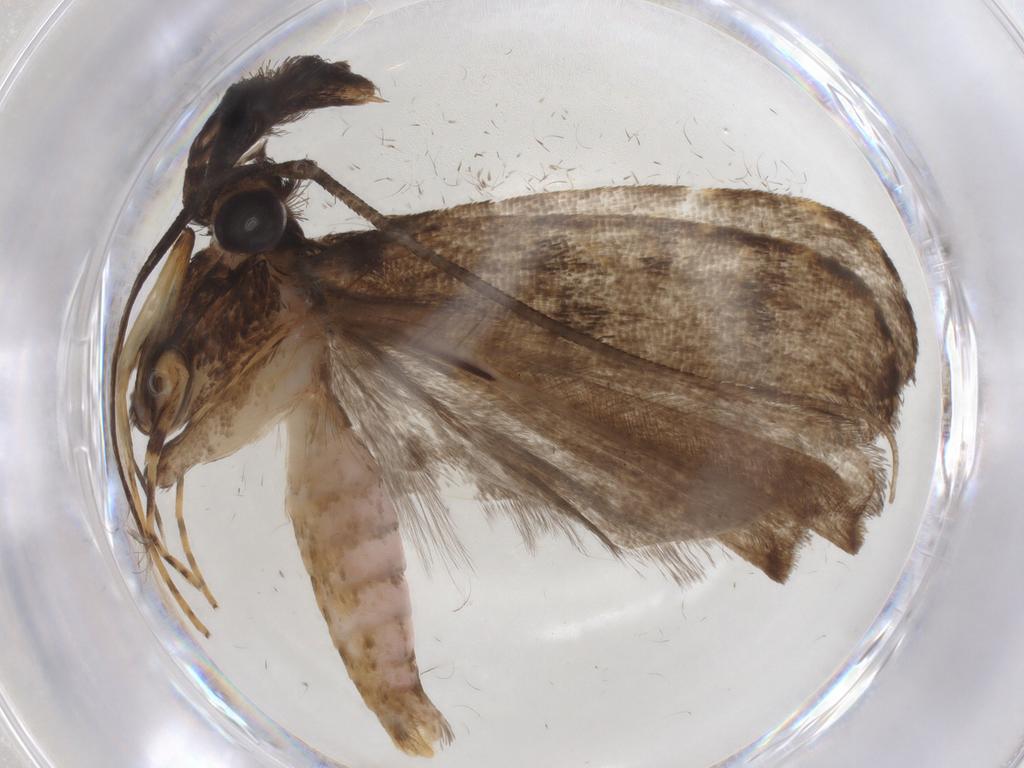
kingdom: Animalia
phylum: Arthropoda
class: Insecta
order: Lepidoptera
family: Cosmopterigidae
